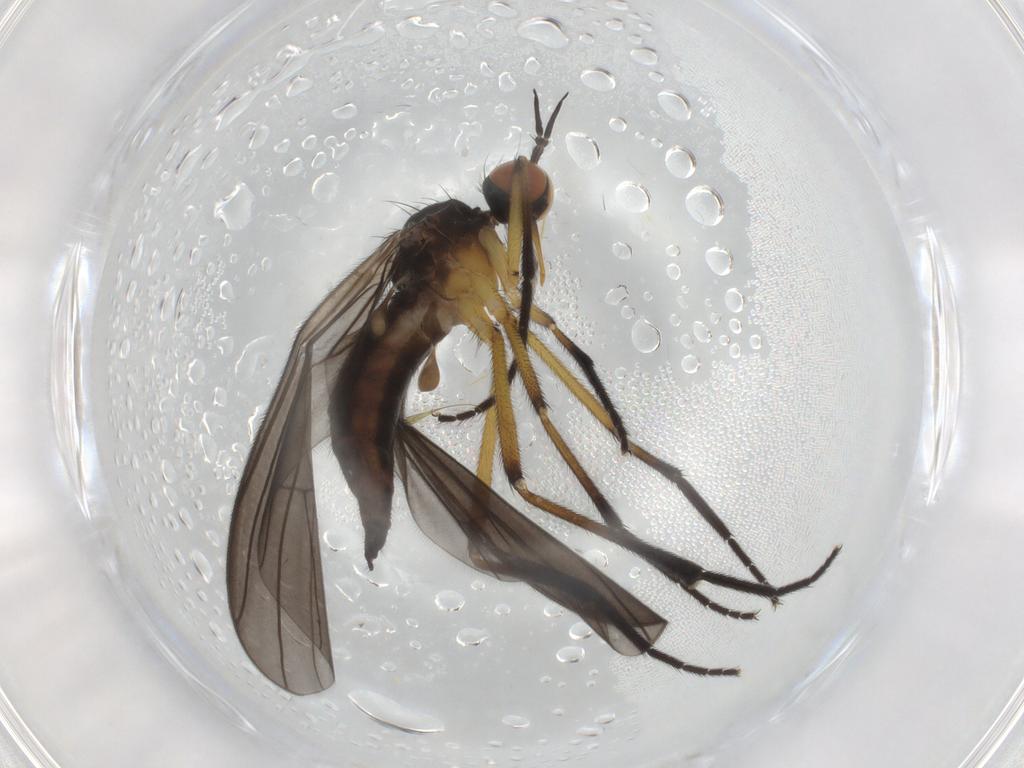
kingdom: Animalia
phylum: Arthropoda
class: Insecta
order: Diptera
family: Empididae
